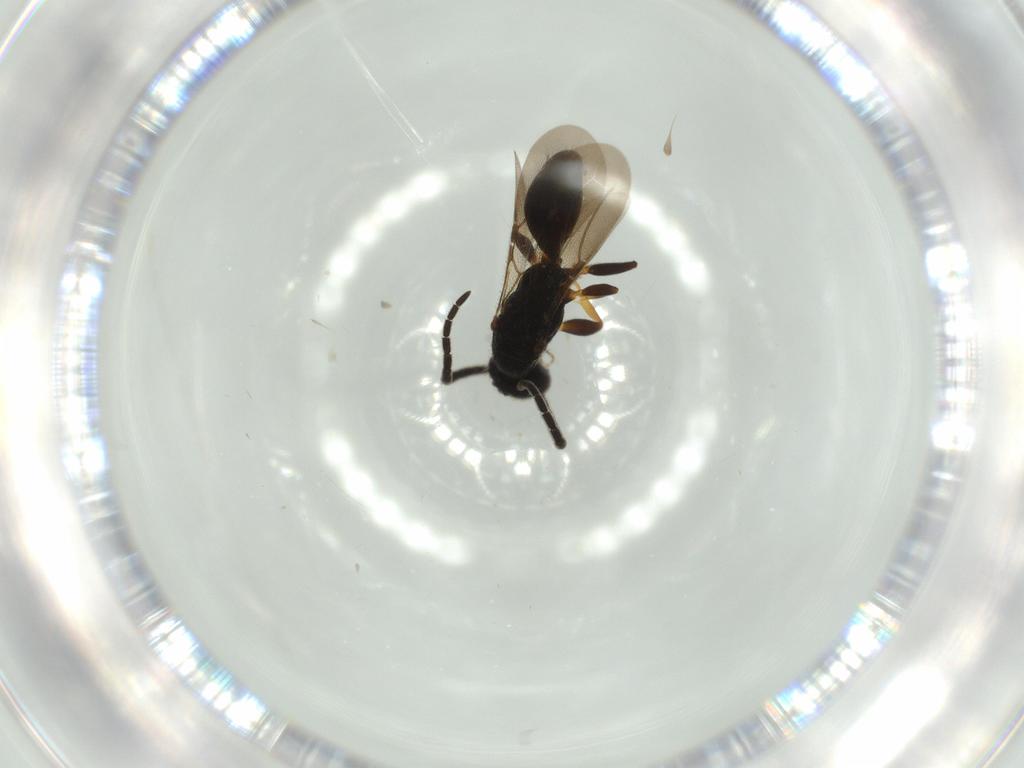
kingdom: Animalia
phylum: Arthropoda
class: Insecta
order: Hymenoptera
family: Bethylidae
